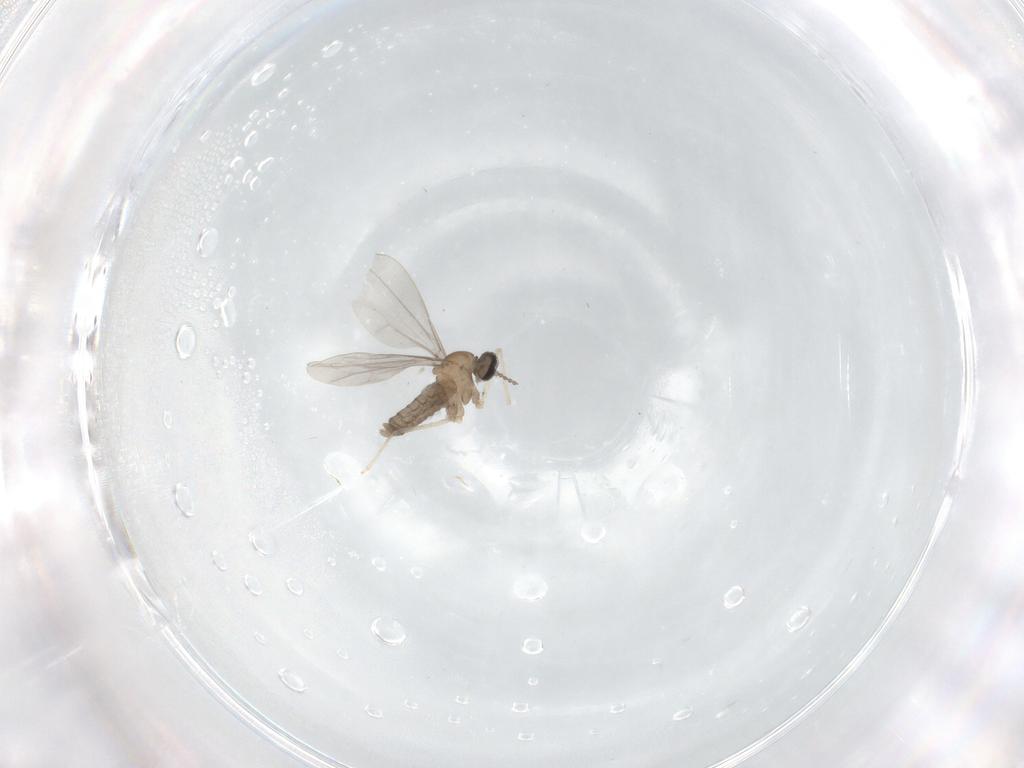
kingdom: Animalia
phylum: Arthropoda
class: Insecta
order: Diptera
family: Cecidomyiidae
